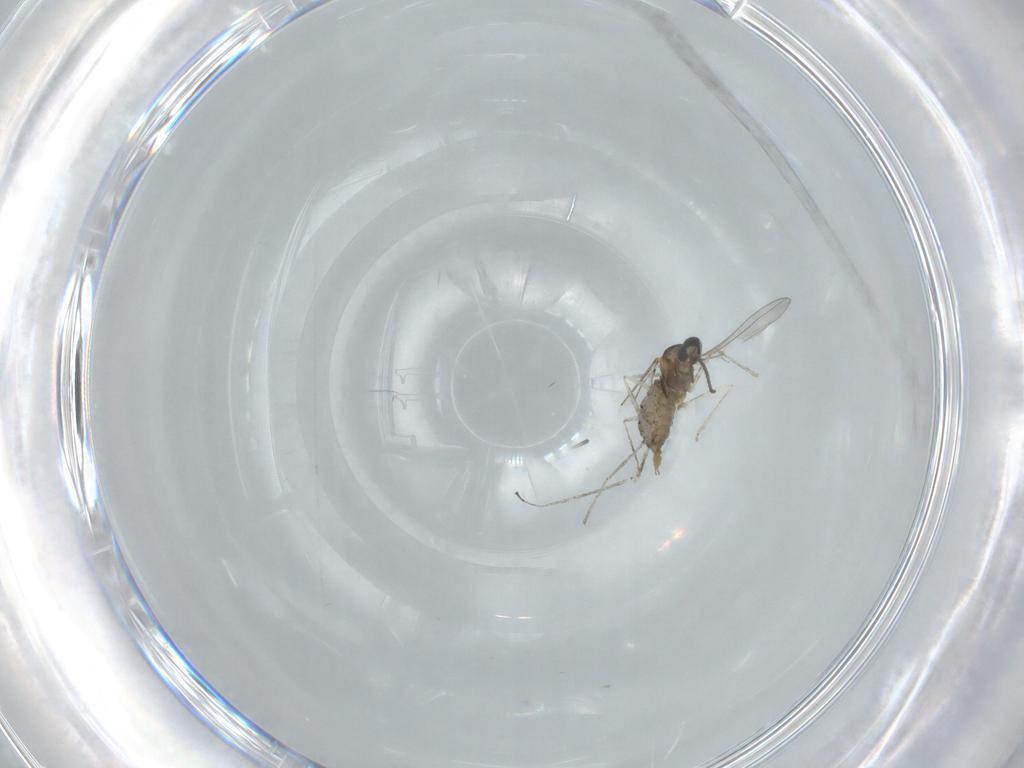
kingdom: Animalia
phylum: Arthropoda
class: Insecta
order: Diptera
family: Cecidomyiidae
